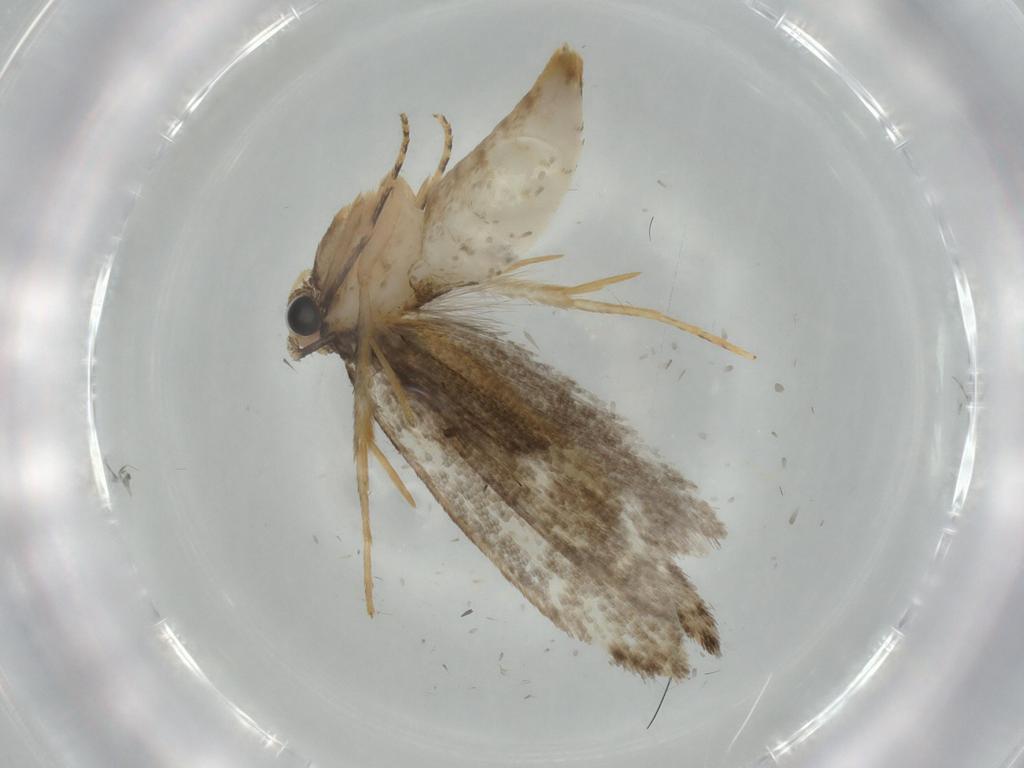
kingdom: Animalia
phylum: Arthropoda
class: Insecta
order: Lepidoptera
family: Tineidae
